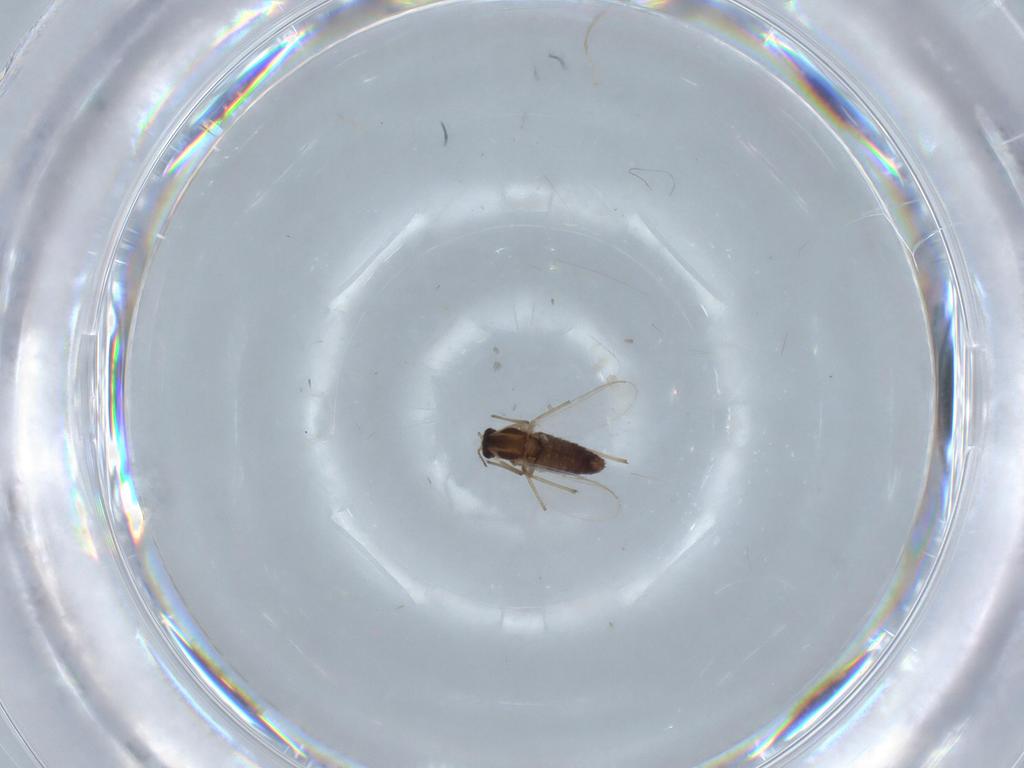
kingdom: Animalia
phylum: Arthropoda
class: Insecta
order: Diptera
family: Chironomidae
